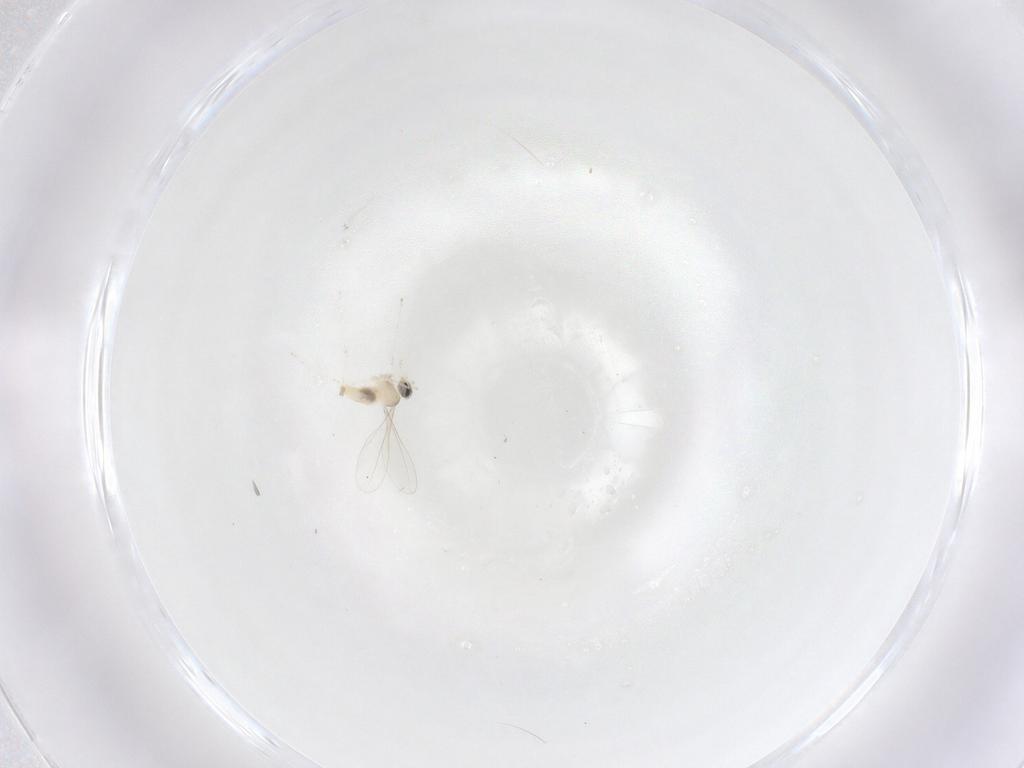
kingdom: Animalia
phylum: Arthropoda
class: Insecta
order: Diptera
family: Cecidomyiidae
